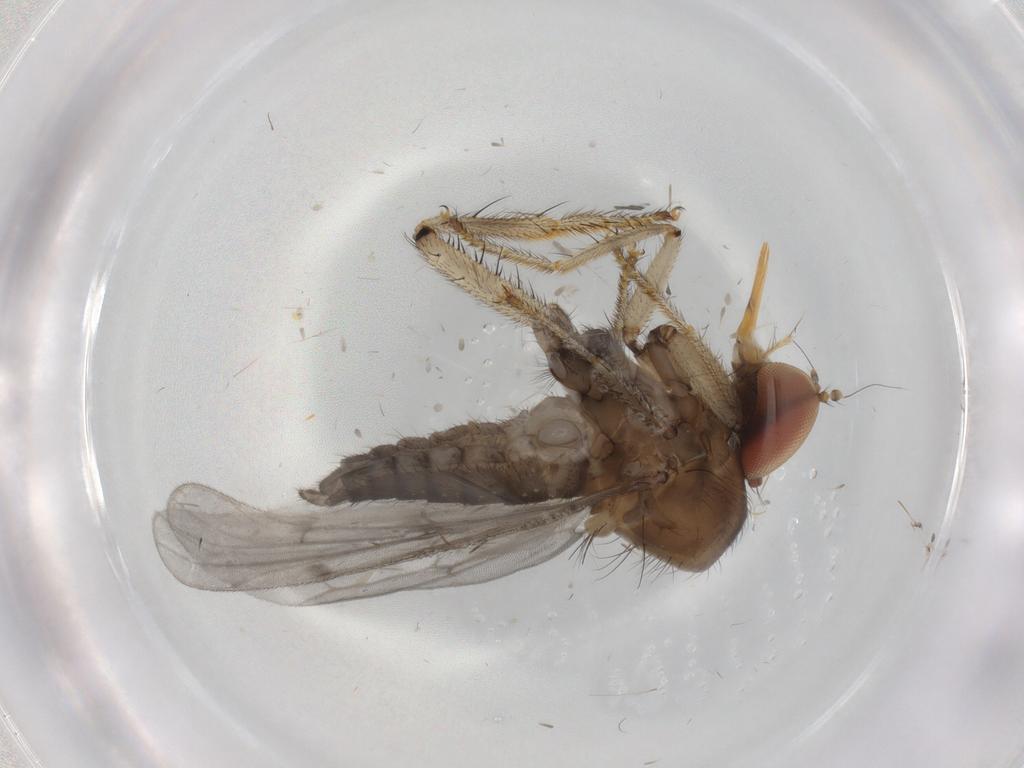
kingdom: Animalia
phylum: Arthropoda
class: Insecta
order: Diptera
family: Hybotidae
